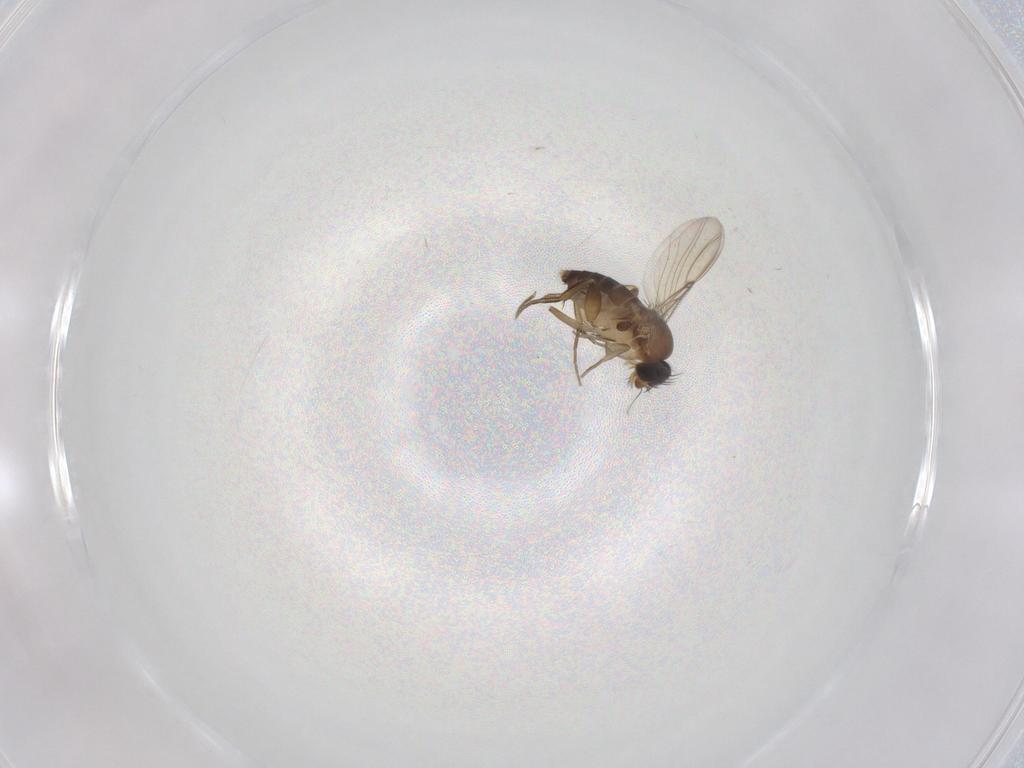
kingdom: Animalia
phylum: Arthropoda
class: Insecta
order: Diptera
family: Phoridae
